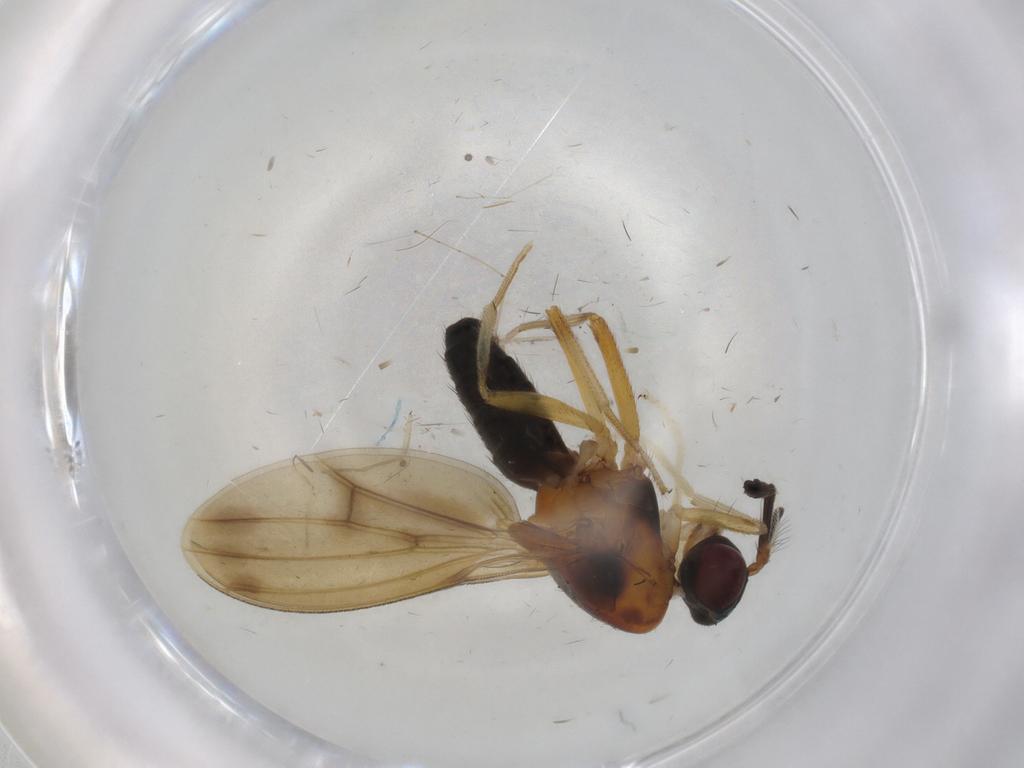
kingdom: Animalia
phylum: Arthropoda
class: Insecta
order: Diptera
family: Lauxaniidae
